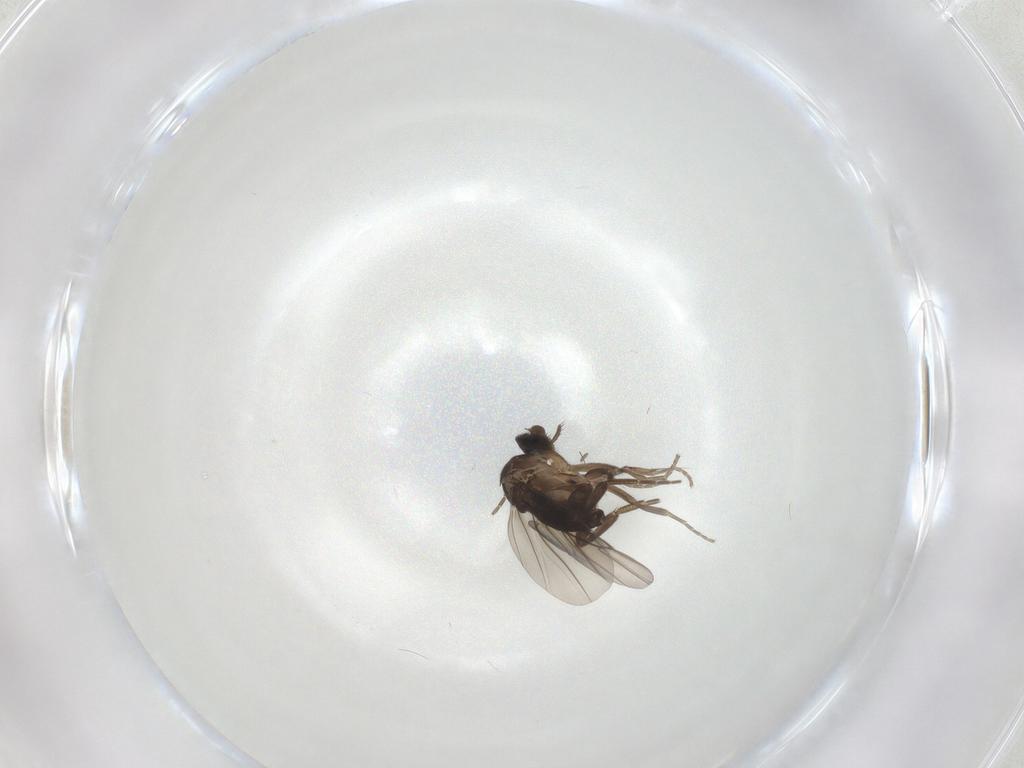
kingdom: Animalia
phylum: Arthropoda
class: Insecta
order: Diptera
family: Phoridae
